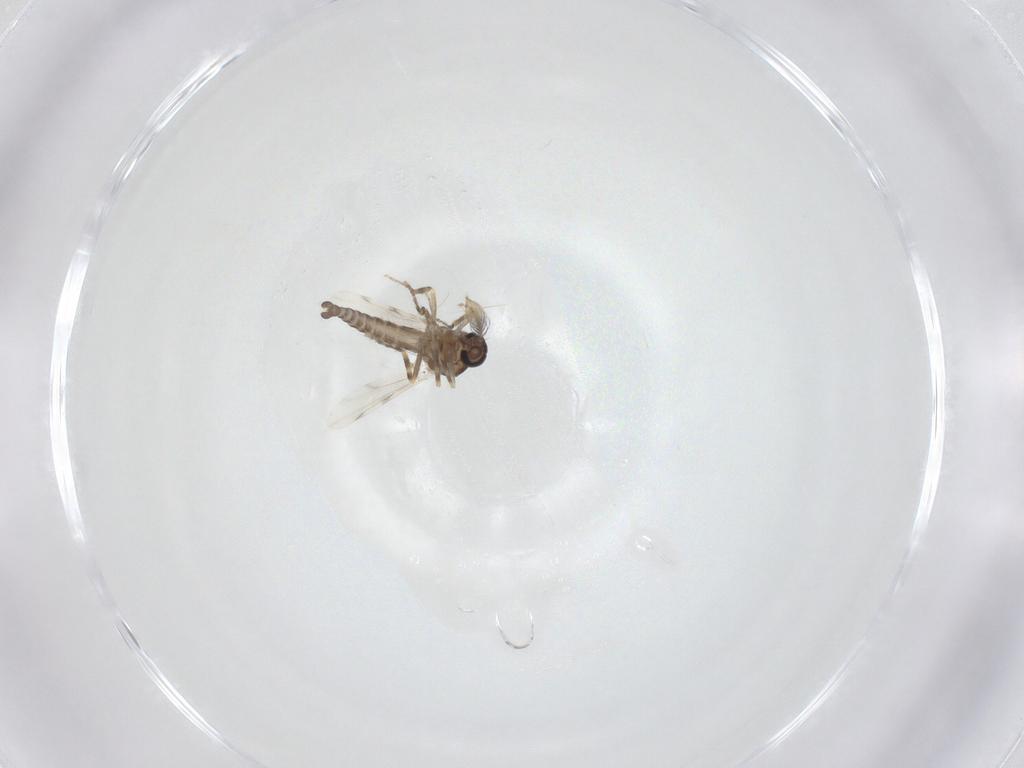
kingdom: Animalia
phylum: Arthropoda
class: Insecta
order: Diptera
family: Ceratopogonidae
